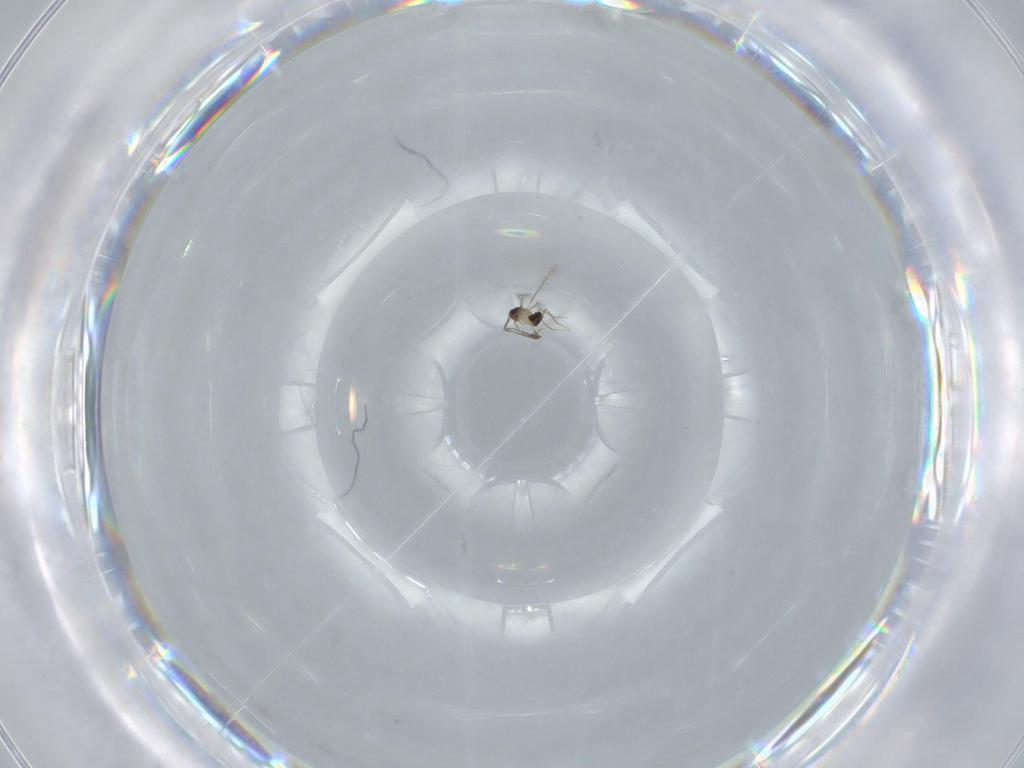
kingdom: Animalia
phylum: Arthropoda
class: Insecta
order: Hymenoptera
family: Mymaridae
